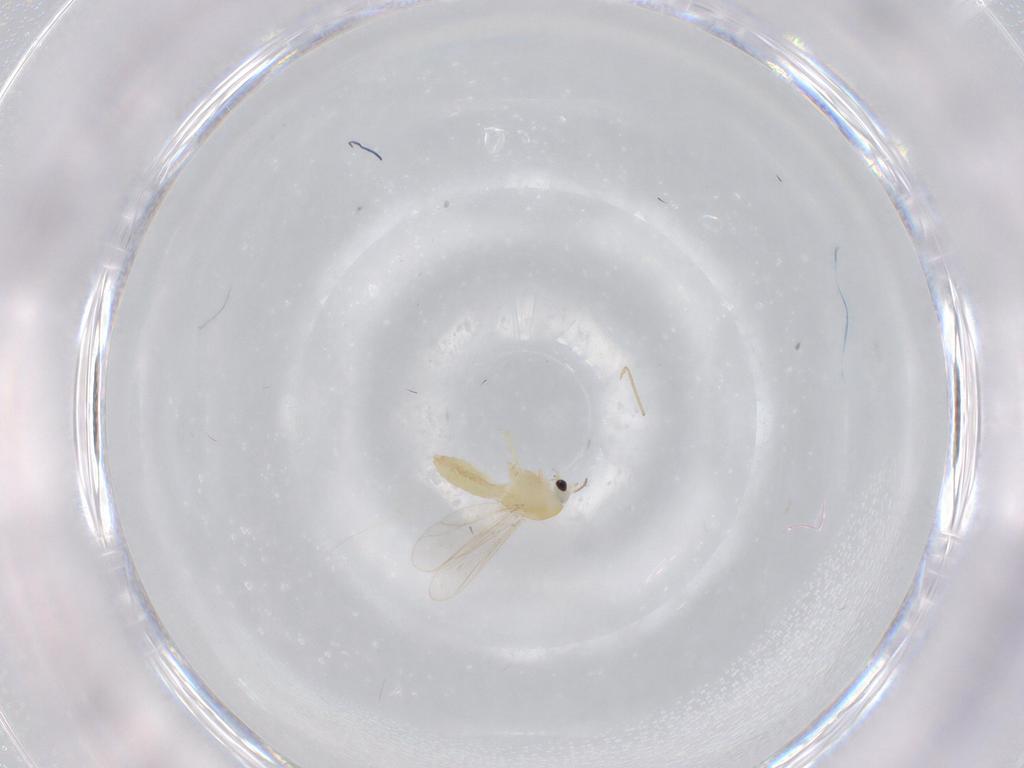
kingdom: Animalia
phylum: Arthropoda
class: Insecta
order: Diptera
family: Chironomidae
